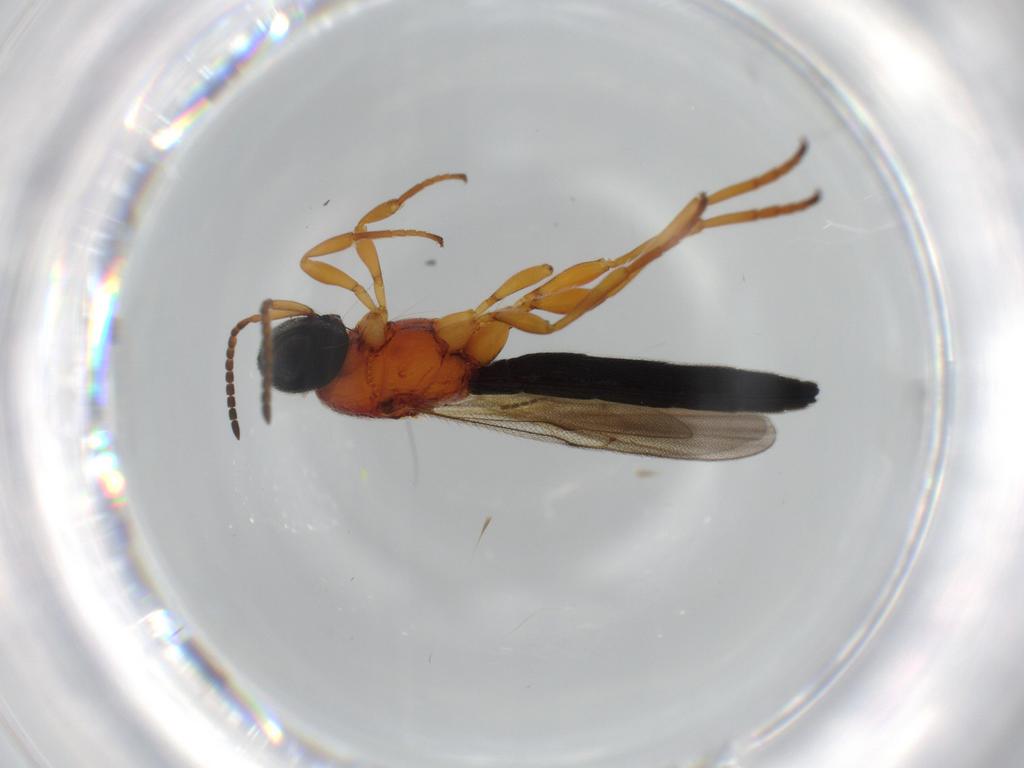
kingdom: Animalia
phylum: Arthropoda
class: Insecta
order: Hymenoptera
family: Scelionidae
